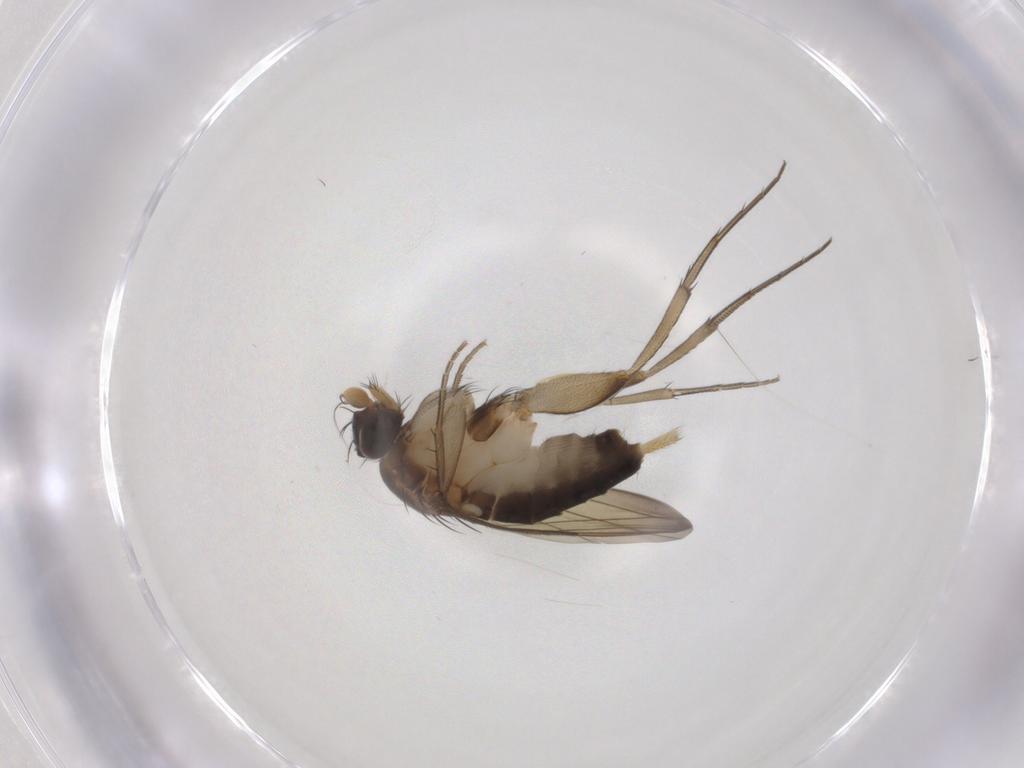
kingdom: Animalia
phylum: Arthropoda
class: Insecta
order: Diptera
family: Phoridae
